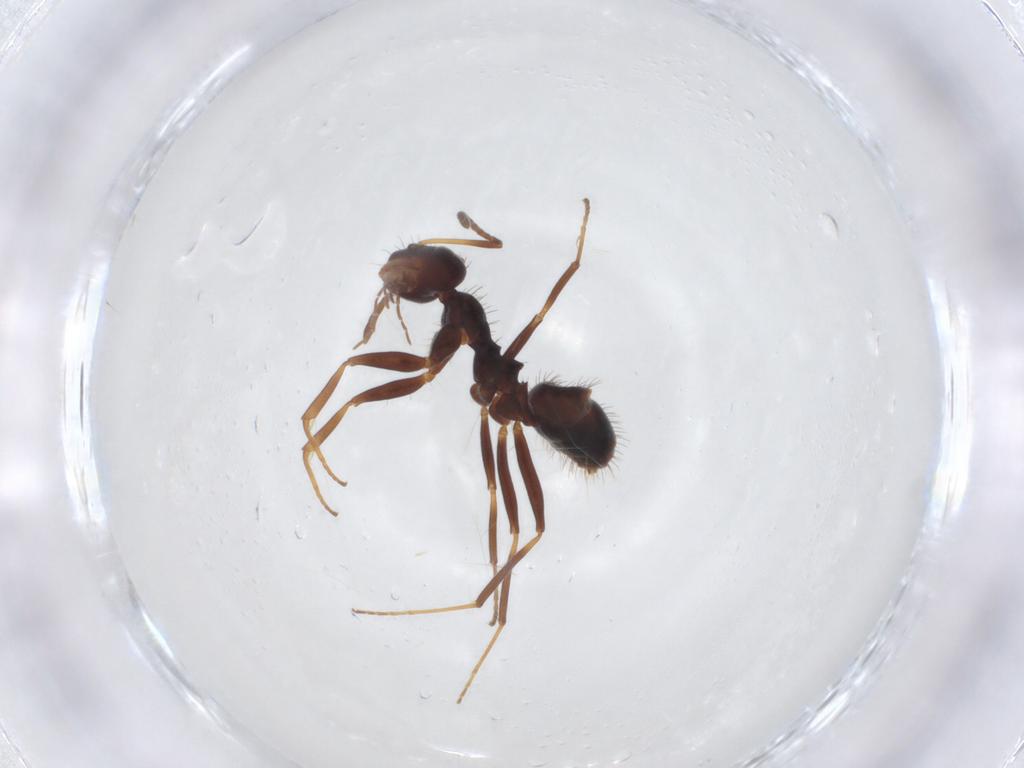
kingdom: Animalia
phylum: Arthropoda
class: Insecta
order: Hymenoptera
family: Formicidae
